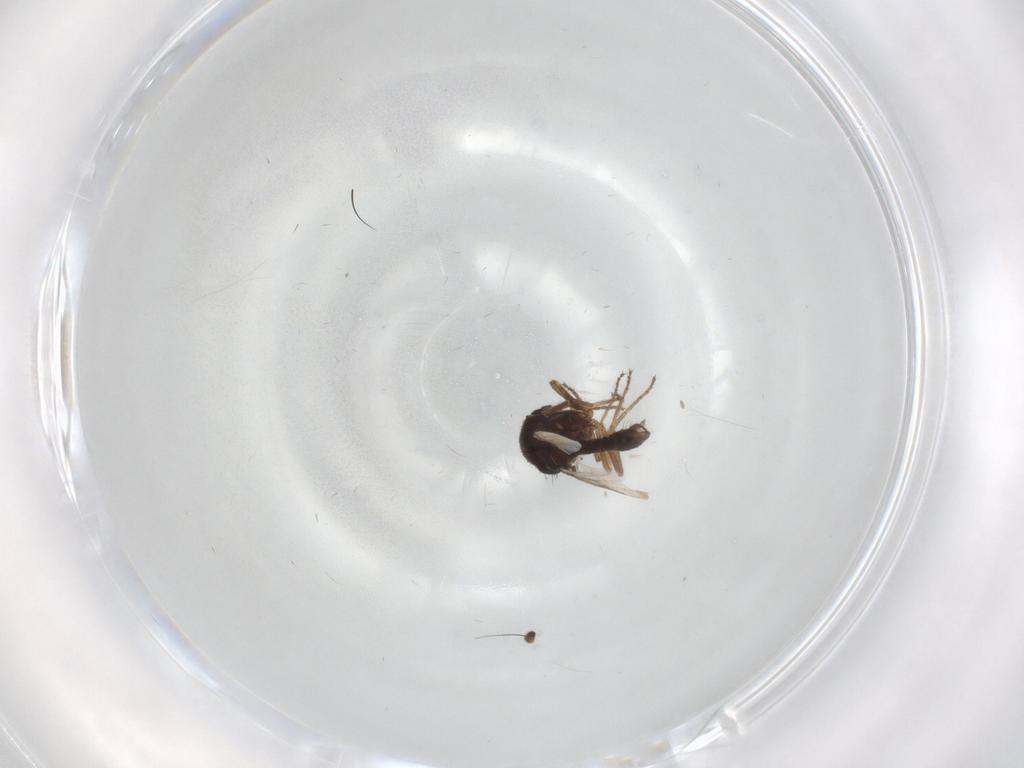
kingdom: Animalia
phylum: Arthropoda
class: Insecta
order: Diptera
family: Ceratopogonidae
